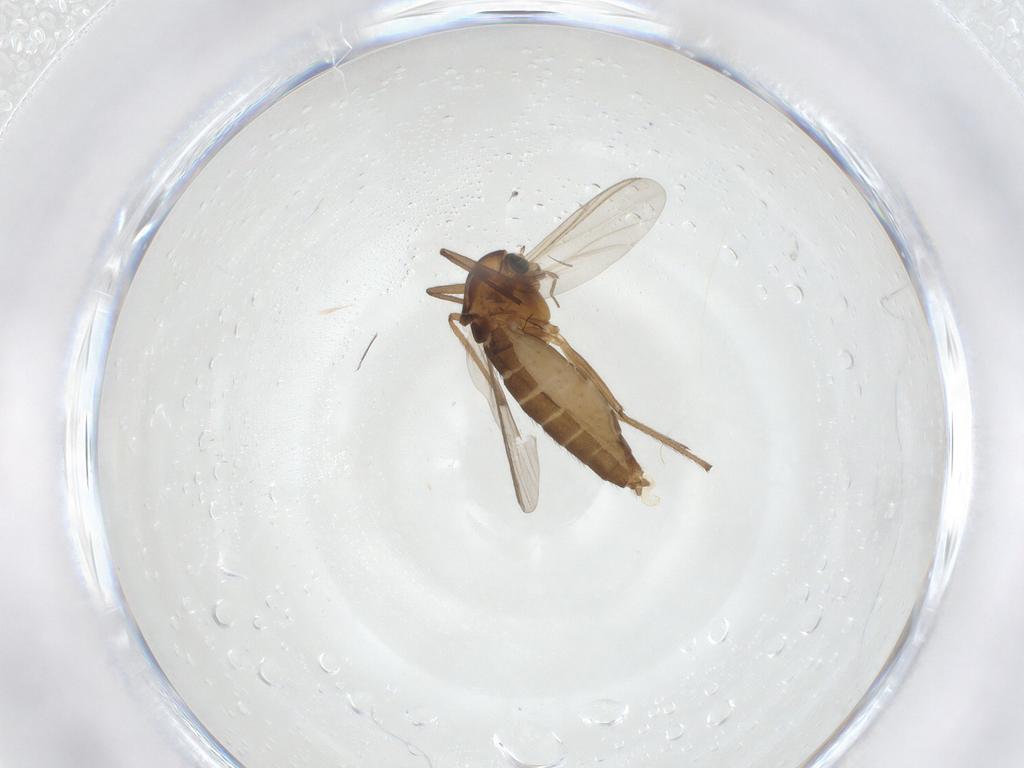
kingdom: Animalia
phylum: Arthropoda
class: Insecta
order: Diptera
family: Chironomidae
